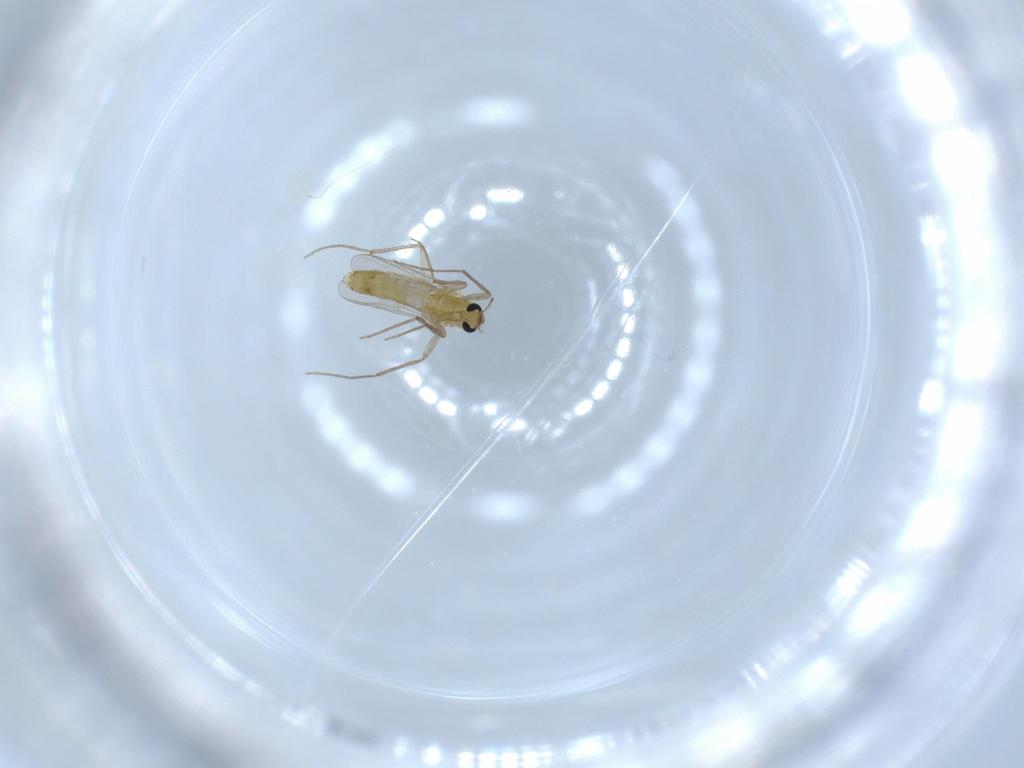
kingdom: Animalia
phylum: Arthropoda
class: Insecta
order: Diptera
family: Chironomidae
